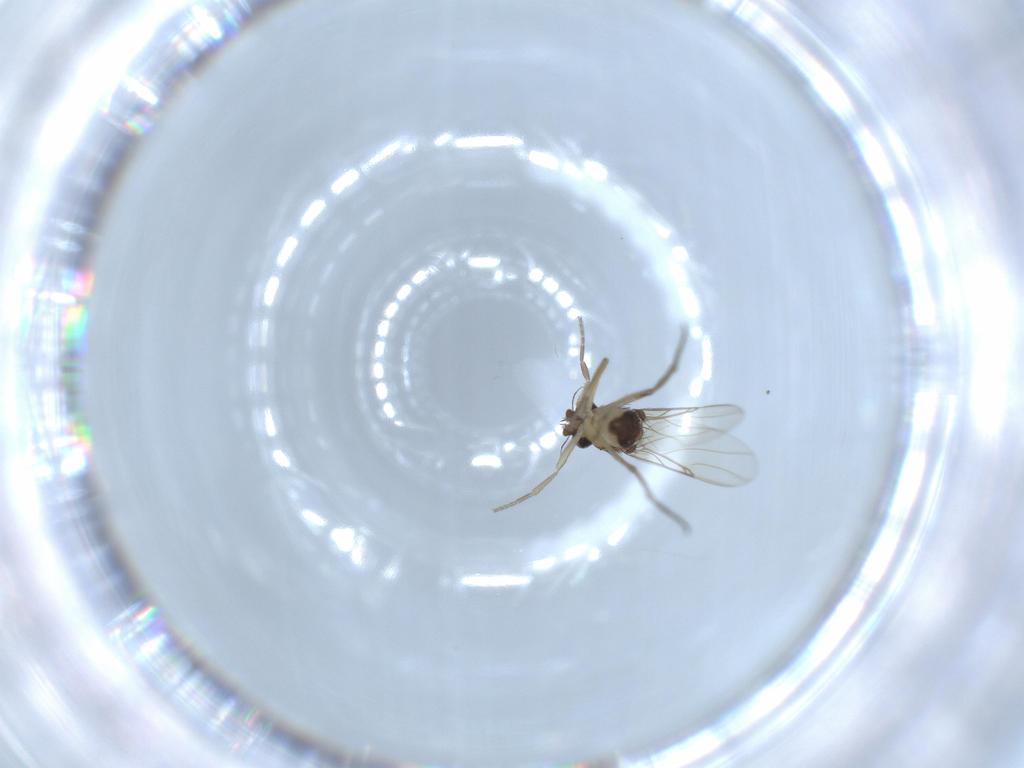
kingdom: Animalia
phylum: Arthropoda
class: Insecta
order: Diptera
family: Phoridae
